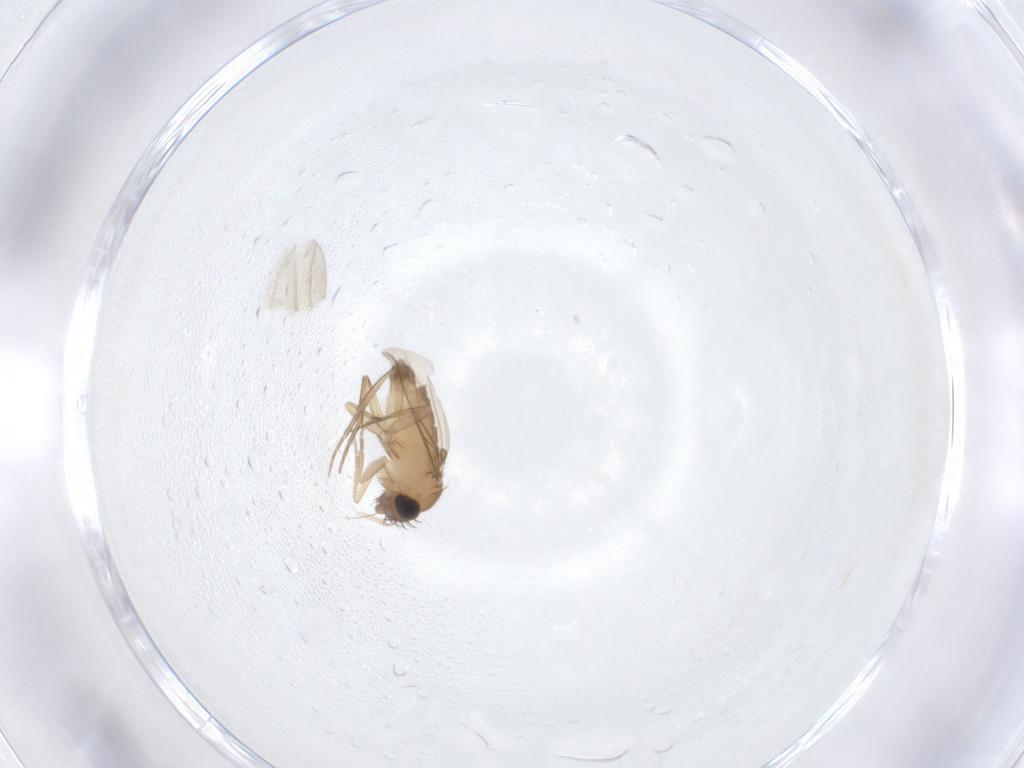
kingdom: Animalia
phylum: Arthropoda
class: Insecta
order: Diptera
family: Phoridae
